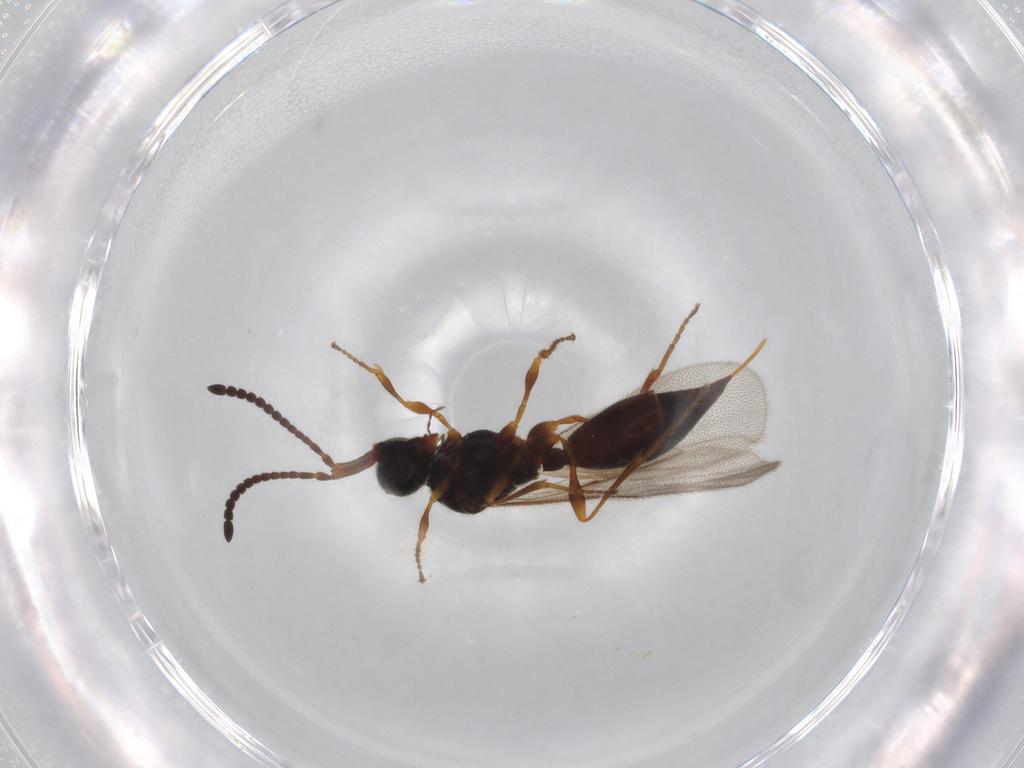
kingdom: Animalia
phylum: Arthropoda
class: Insecta
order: Hymenoptera
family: Diapriidae
